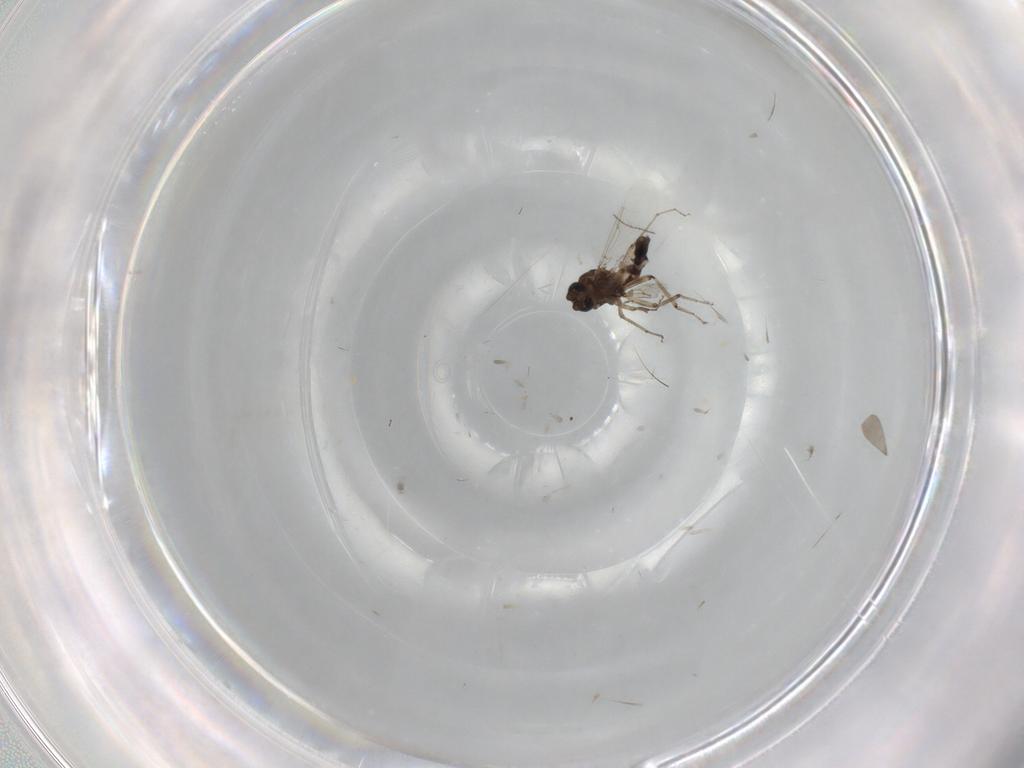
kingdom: Animalia
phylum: Arthropoda
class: Insecta
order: Diptera
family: Ceratopogonidae
